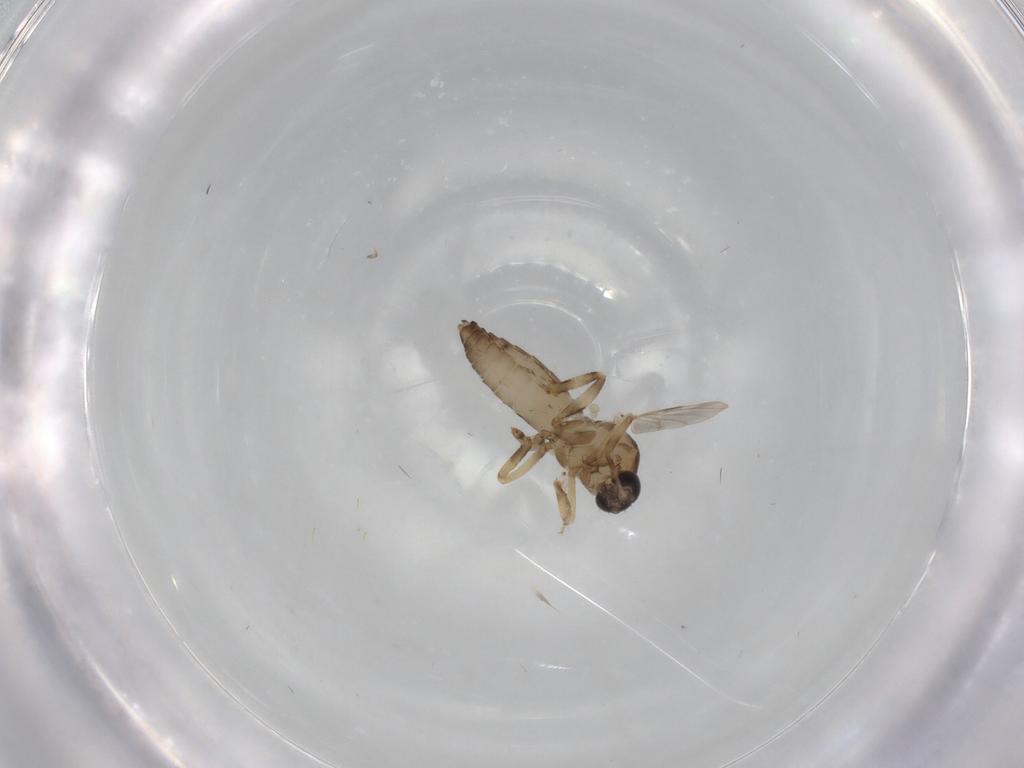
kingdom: Animalia
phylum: Arthropoda
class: Insecta
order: Diptera
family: Ceratopogonidae
